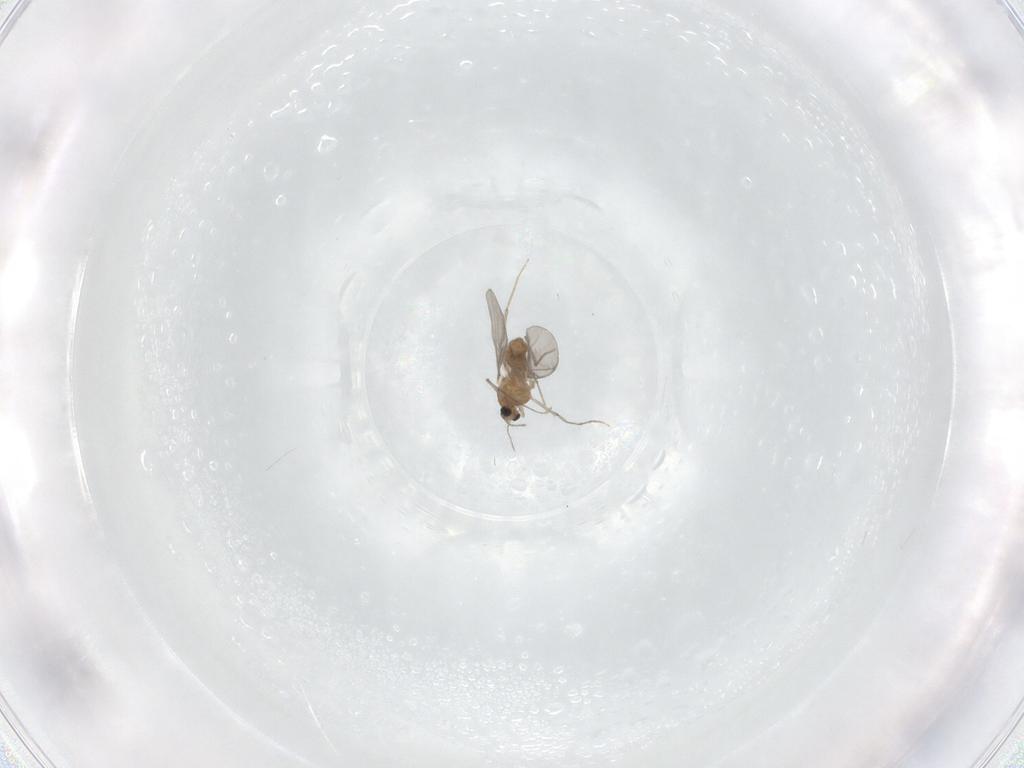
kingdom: Animalia
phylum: Arthropoda
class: Insecta
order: Diptera
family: Chironomidae
